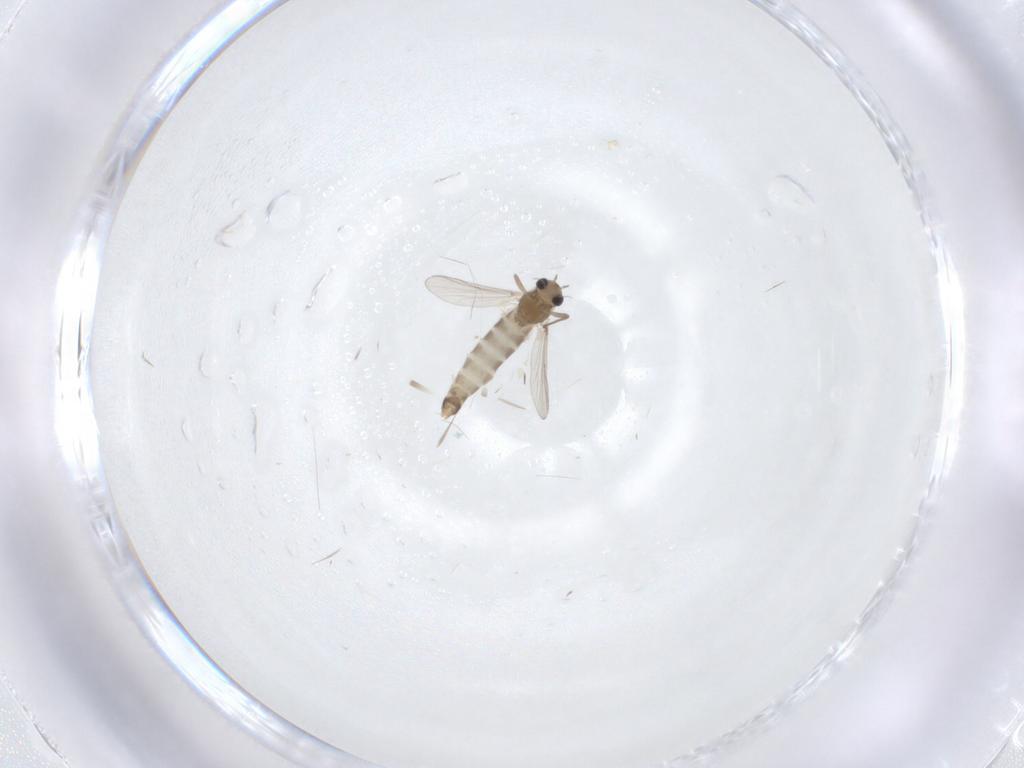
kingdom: Animalia
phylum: Arthropoda
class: Insecta
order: Diptera
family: Chironomidae
